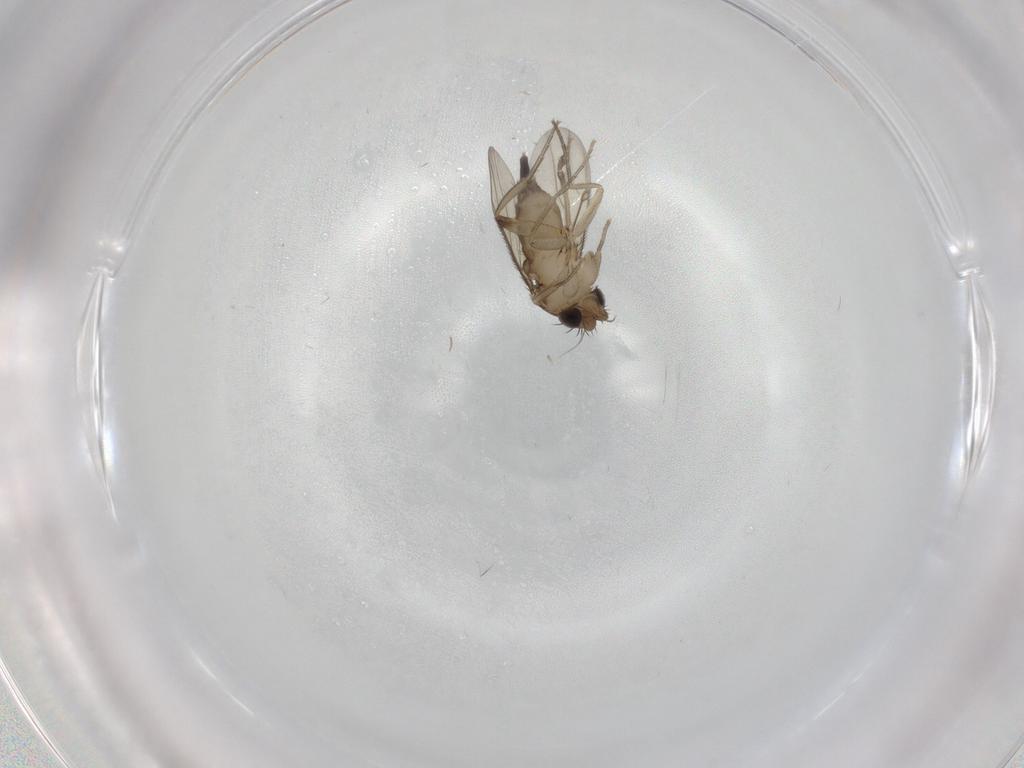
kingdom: Animalia
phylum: Arthropoda
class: Insecta
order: Diptera
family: Phoridae
